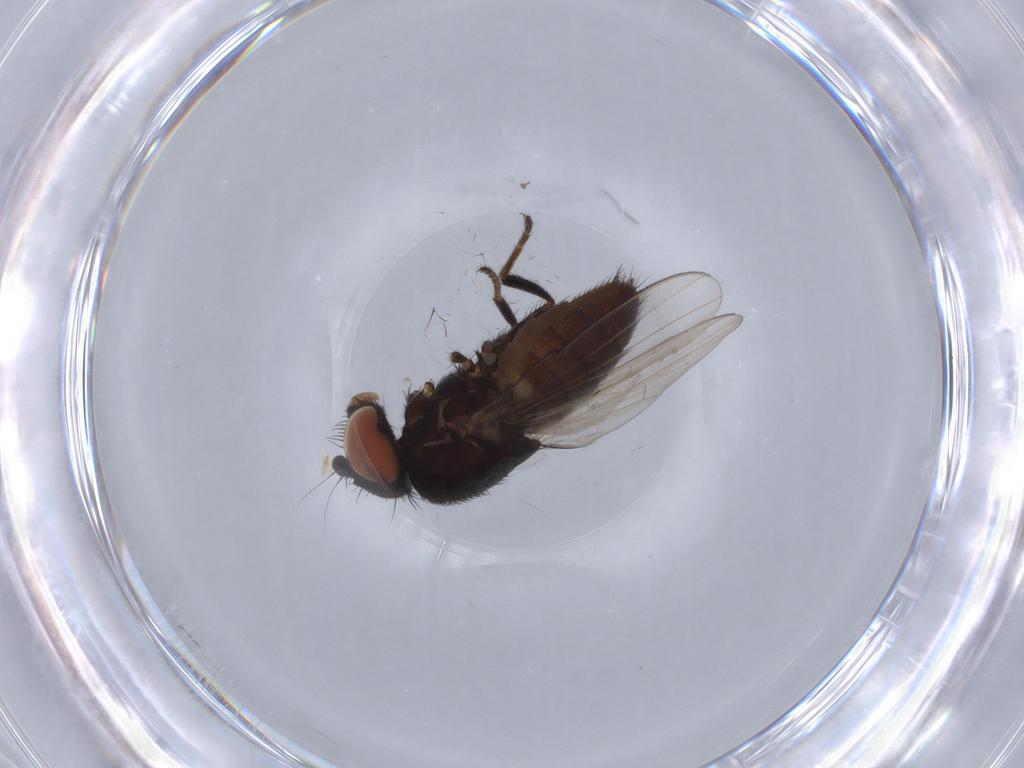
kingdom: Animalia
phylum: Arthropoda
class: Insecta
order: Diptera
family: Milichiidae
